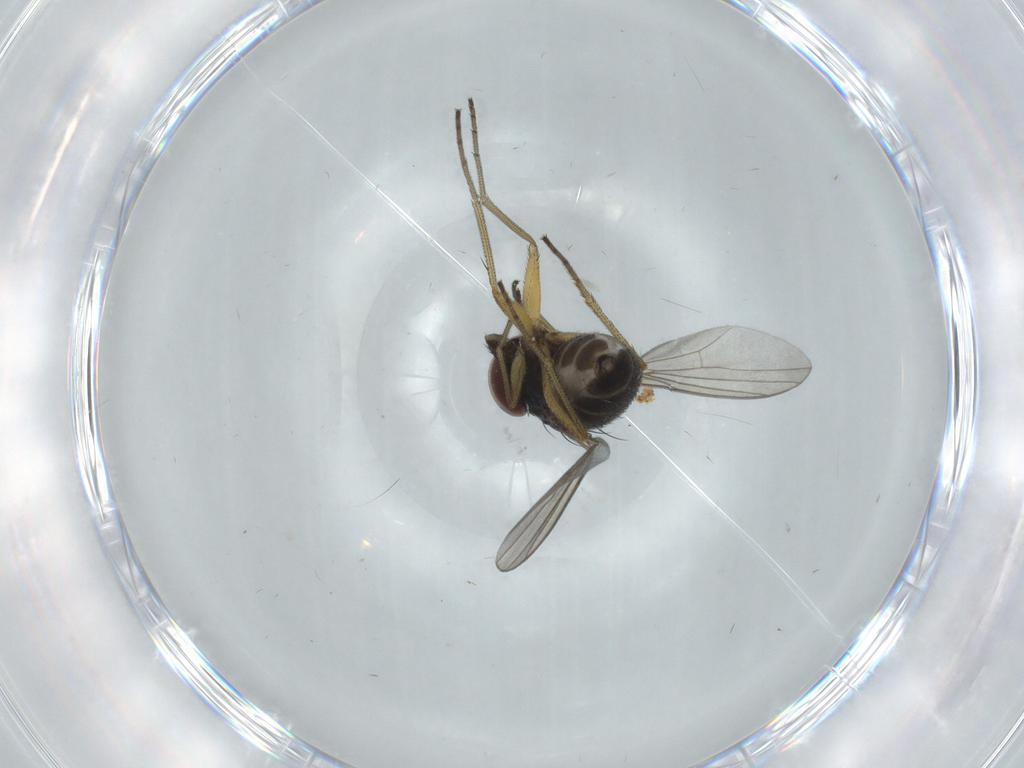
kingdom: Animalia
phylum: Arthropoda
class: Insecta
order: Diptera
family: Dolichopodidae
